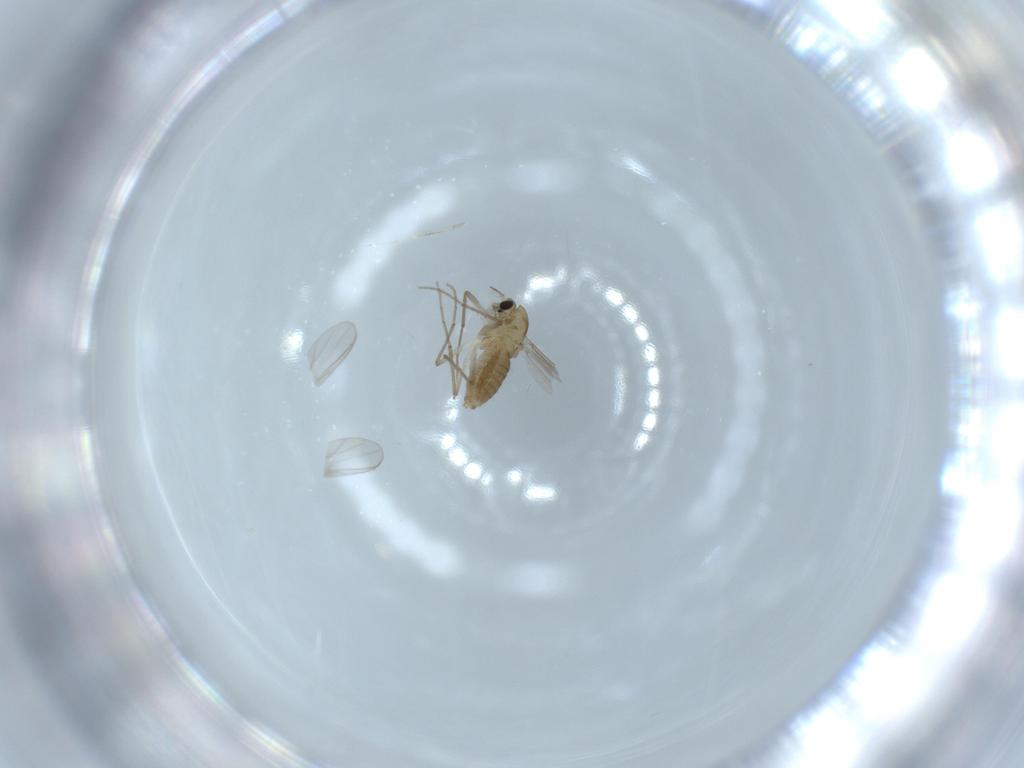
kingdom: Animalia
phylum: Arthropoda
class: Insecta
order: Diptera
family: Chironomidae
